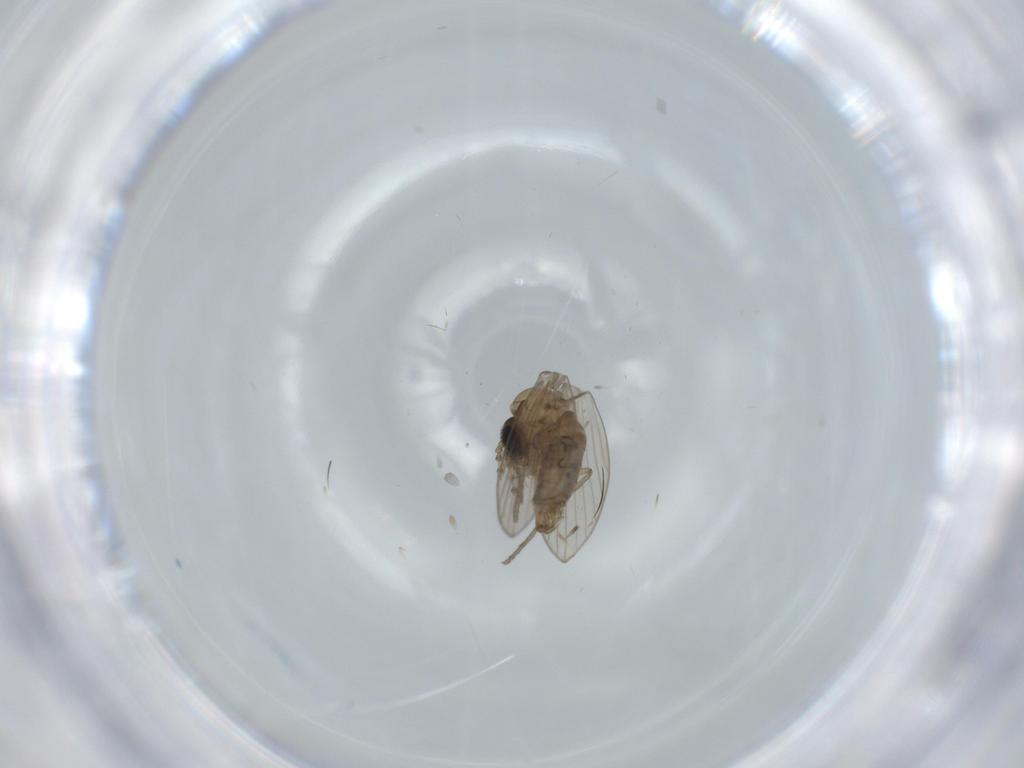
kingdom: Animalia
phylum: Arthropoda
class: Insecta
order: Diptera
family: Psychodidae
